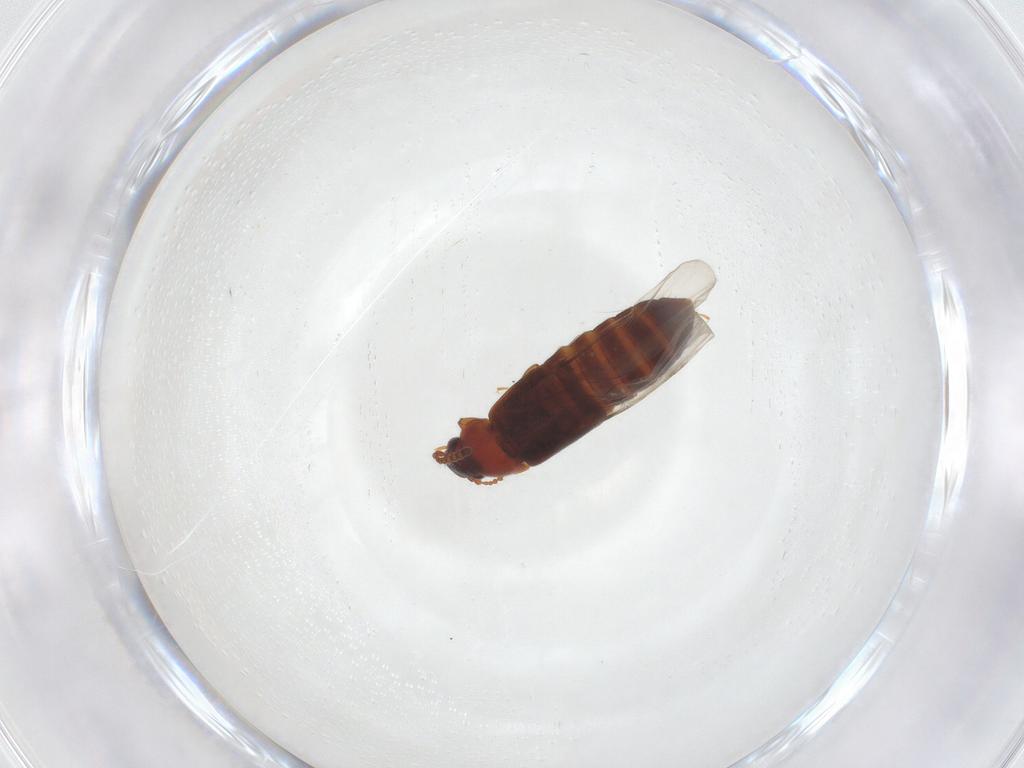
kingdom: Animalia
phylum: Arthropoda
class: Insecta
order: Coleoptera
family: Staphylinidae
